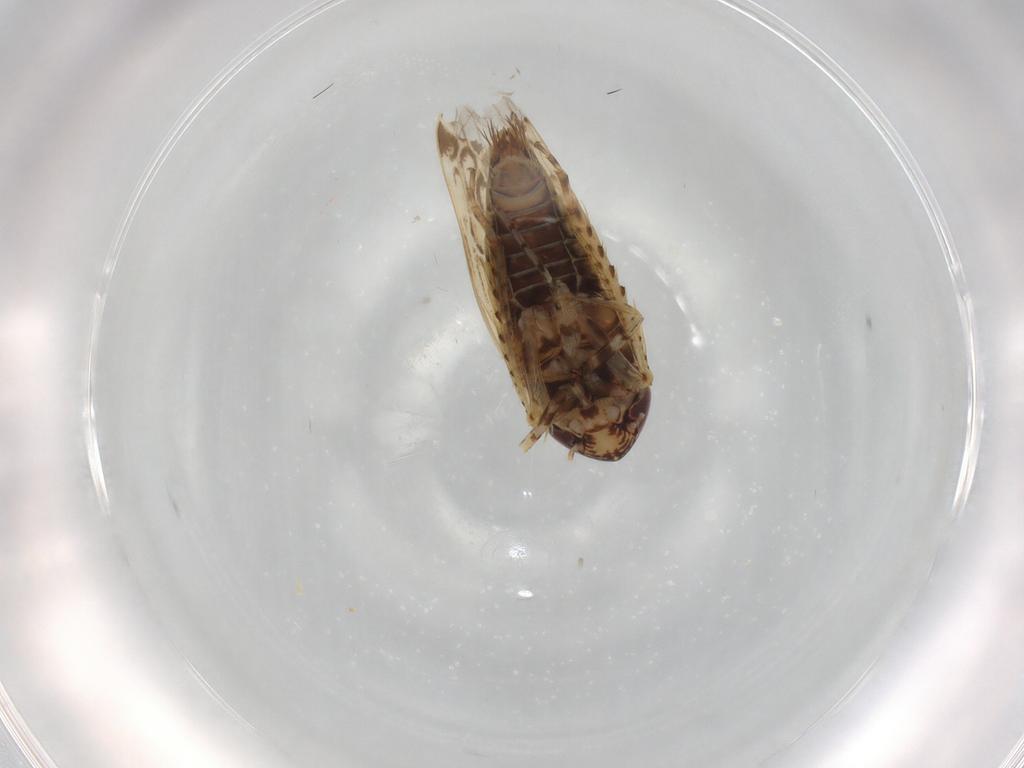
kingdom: Animalia
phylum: Arthropoda
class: Insecta
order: Hemiptera
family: Cicadellidae
